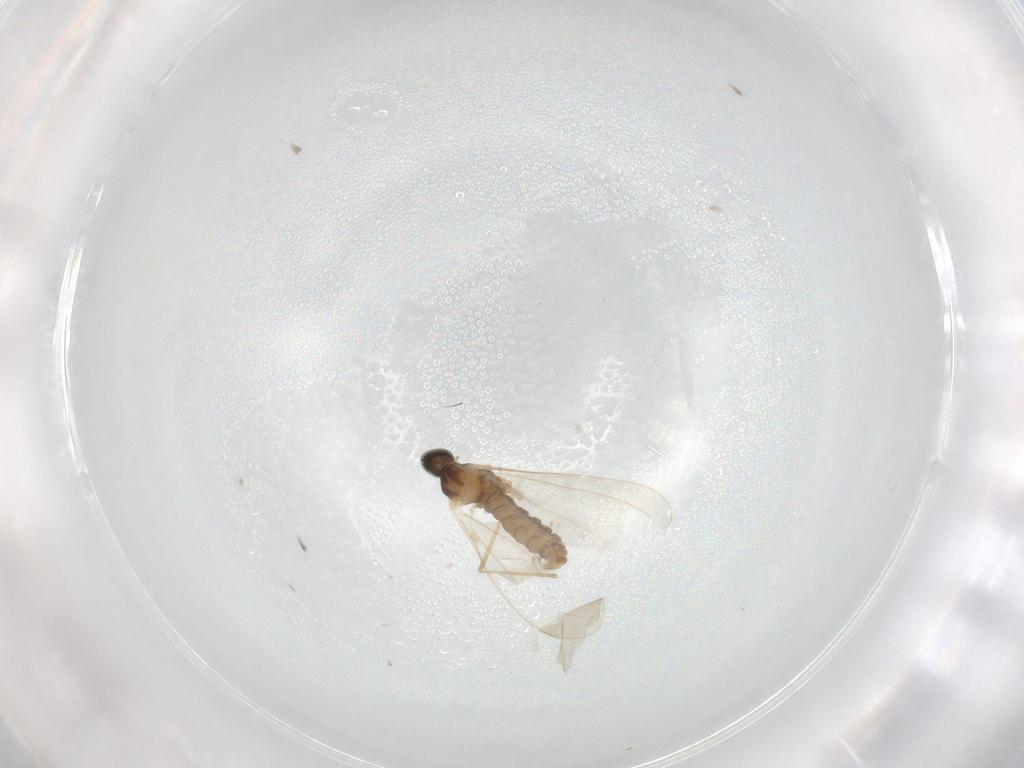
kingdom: Animalia
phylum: Arthropoda
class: Insecta
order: Diptera
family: Cecidomyiidae
